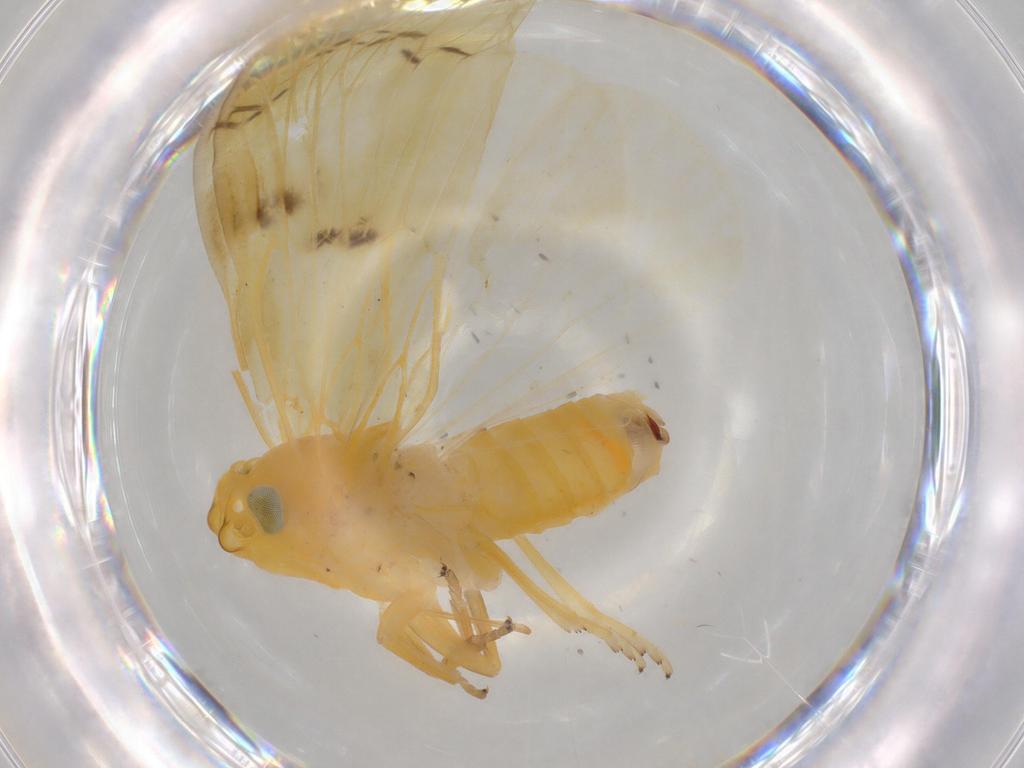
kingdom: Animalia
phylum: Arthropoda
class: Insecta
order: Hemiptera
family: Cixiidae
